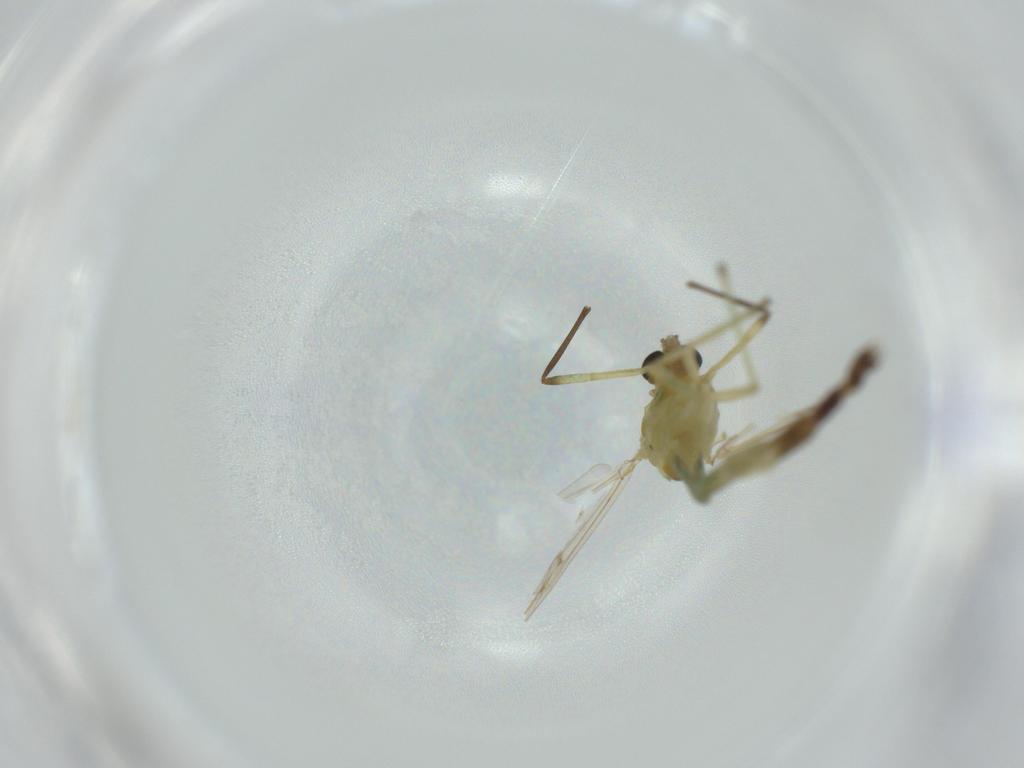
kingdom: Animalia
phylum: Arthropoda
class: Insecta
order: Diptera
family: Chironomidae
